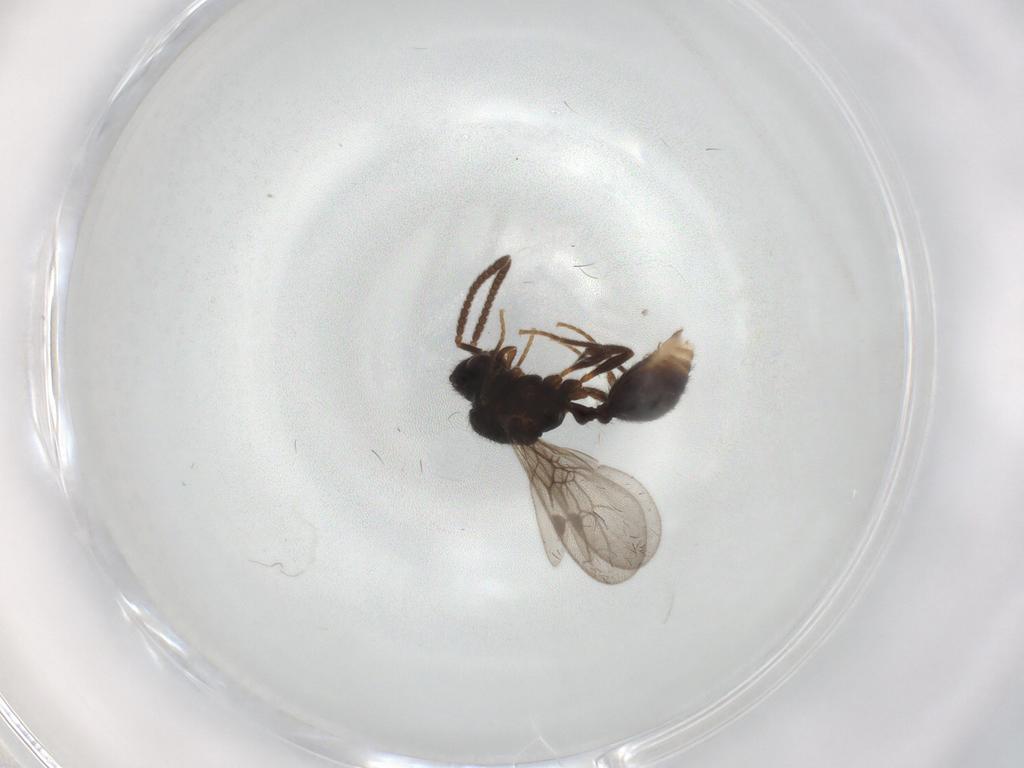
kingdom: Animalia
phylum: Arthropoda
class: Insecta
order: Hymenoptera
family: Formicidae
